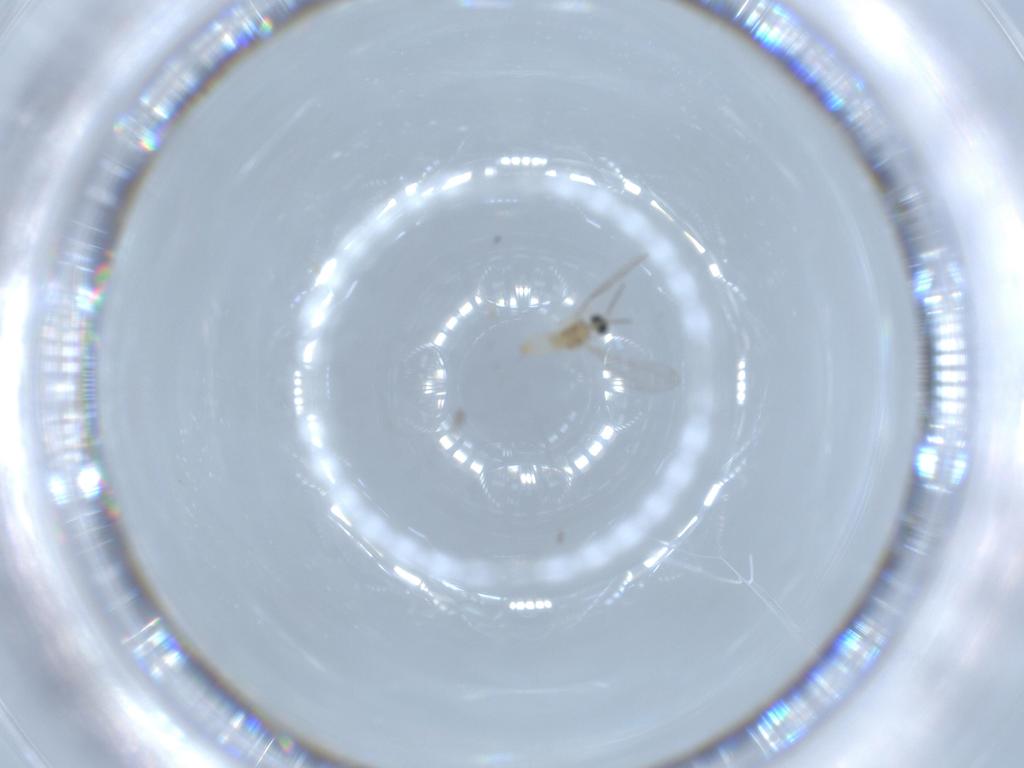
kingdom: Animalia
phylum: Arthropoda
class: Insecta
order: Diptera
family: Cecidomyiidae
